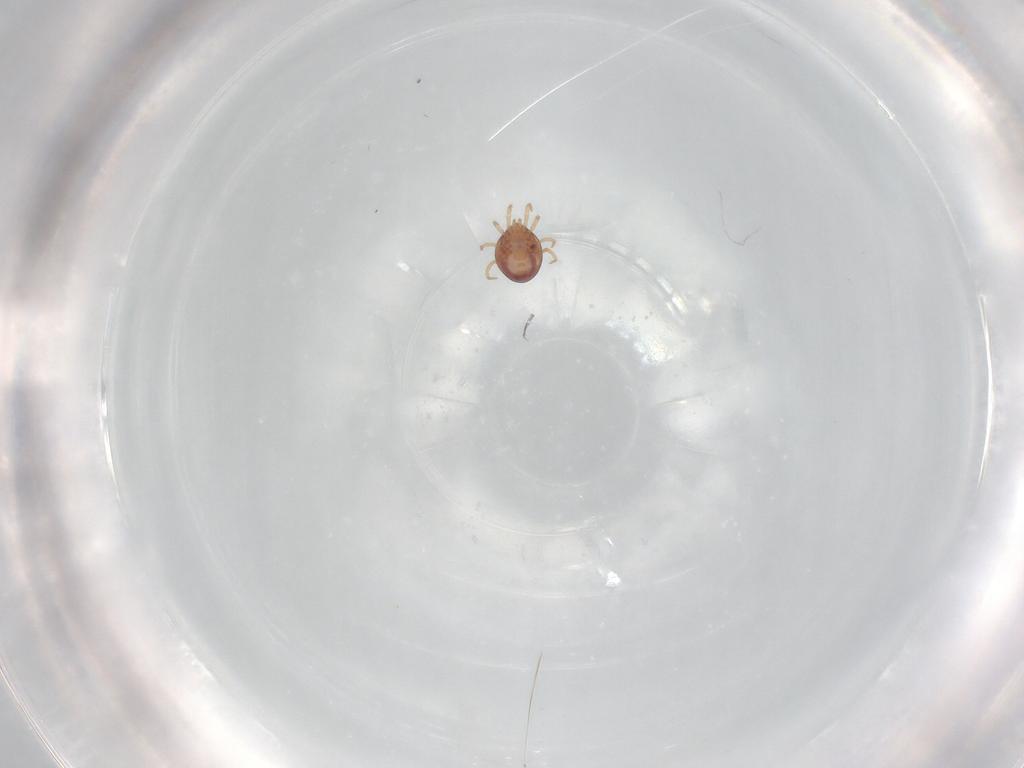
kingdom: Animalia
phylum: Arthropoda
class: Arachnida
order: Mesostigmata
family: Phytoseiidae
